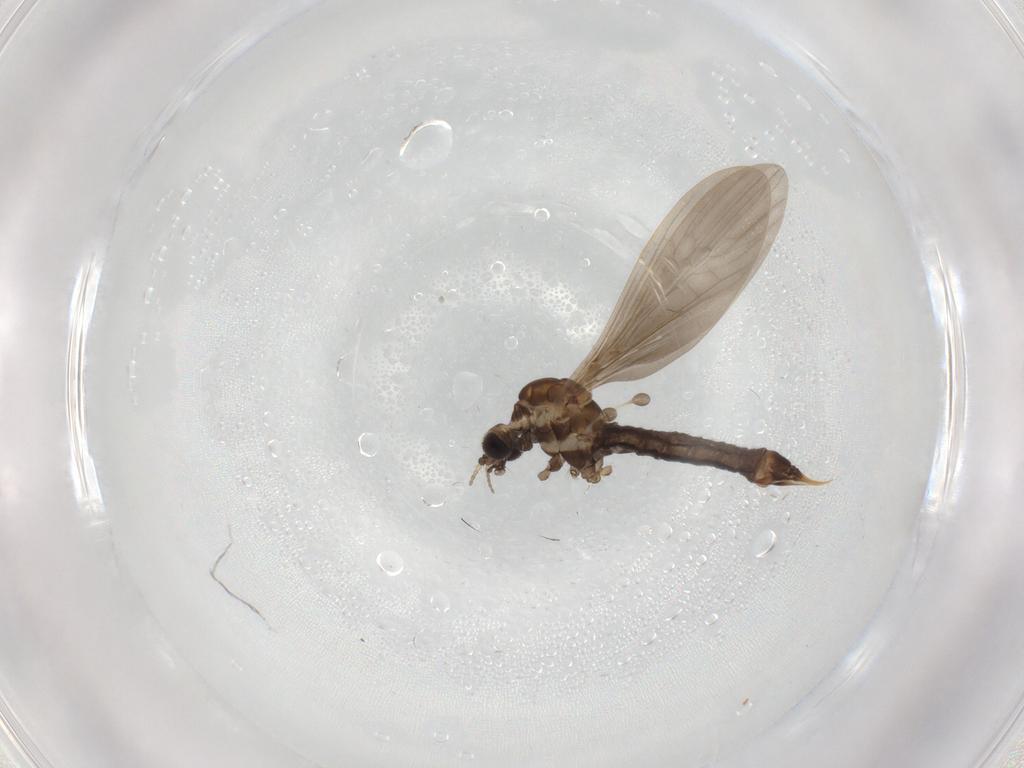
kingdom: Animalia
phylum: Arthropoda
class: Insecta
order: Diptera
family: Limoniidae
